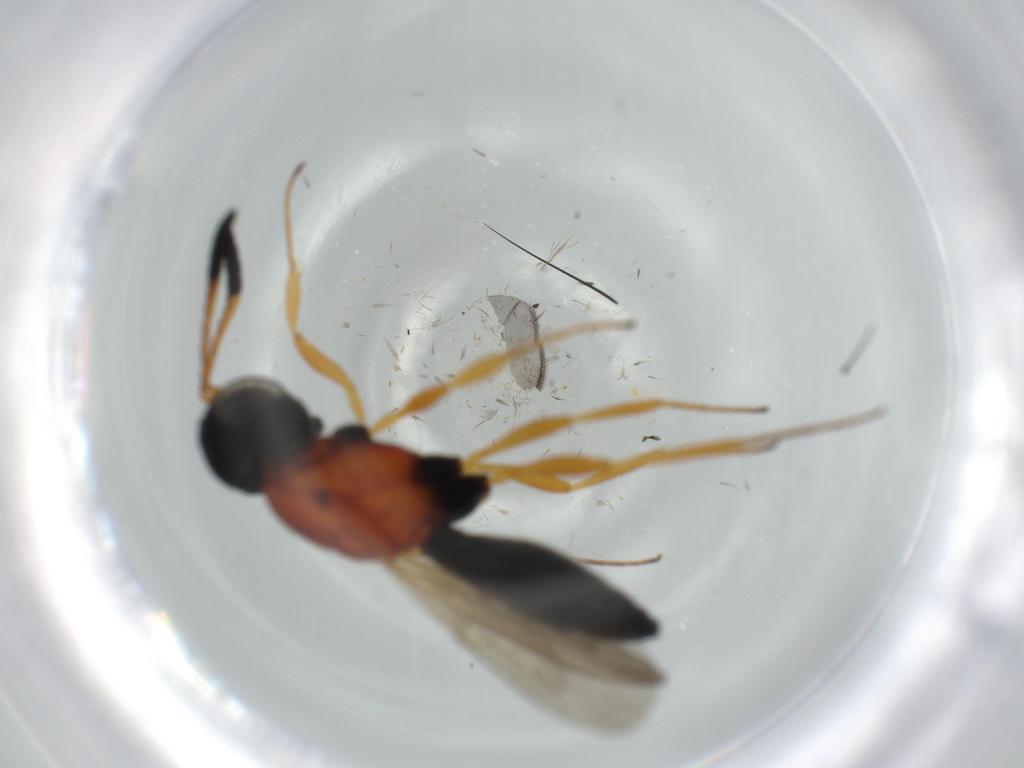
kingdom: Animalia
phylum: Arthropoda
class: Insecta
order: Hymenoptera
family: Scelionidae
